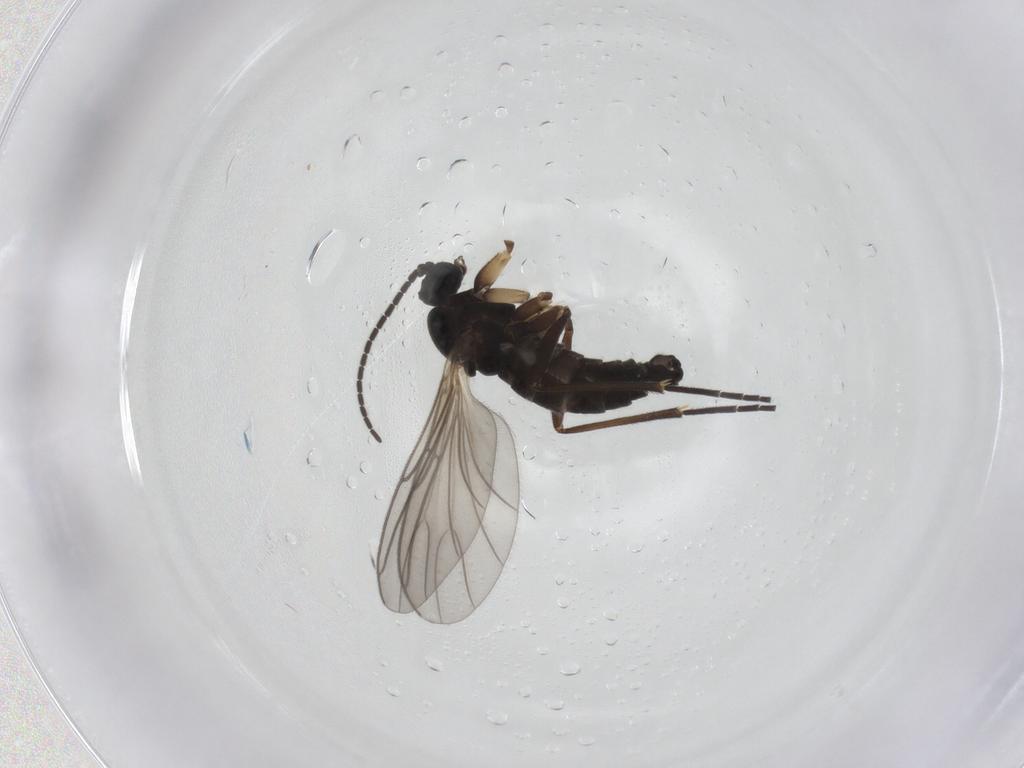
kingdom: Animalia
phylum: Arthropoda
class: Insecta
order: Diptera
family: Sciaridae
